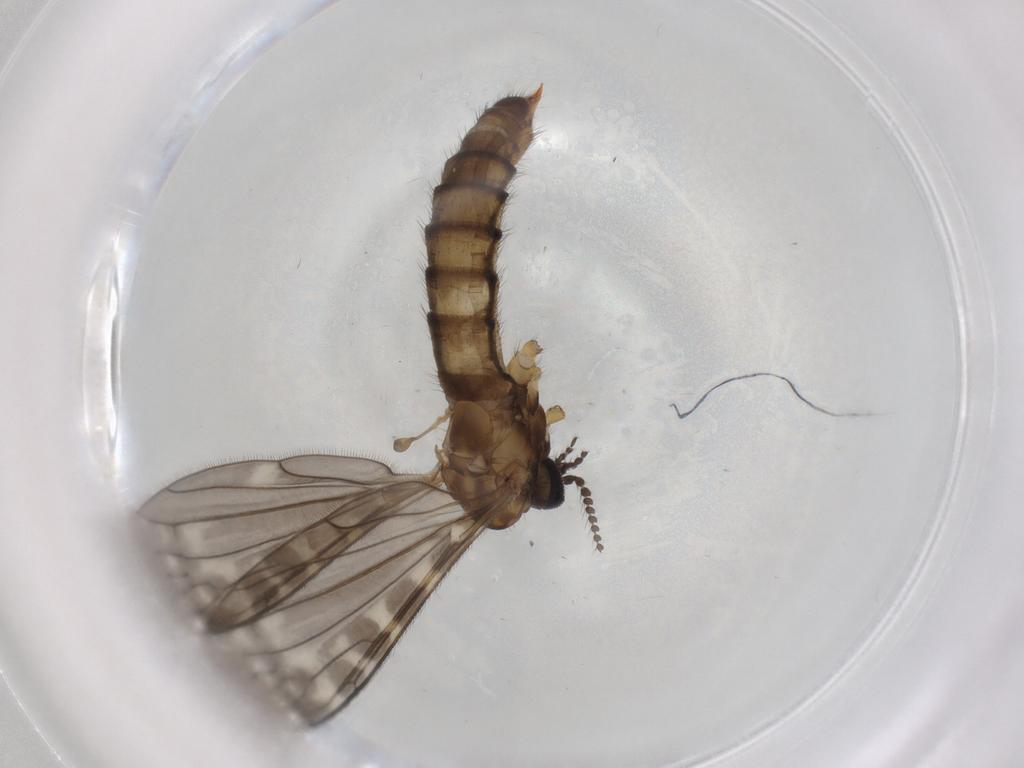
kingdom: Animalia
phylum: Arthropoda
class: Insecta
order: Diptera
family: Limoniidae
